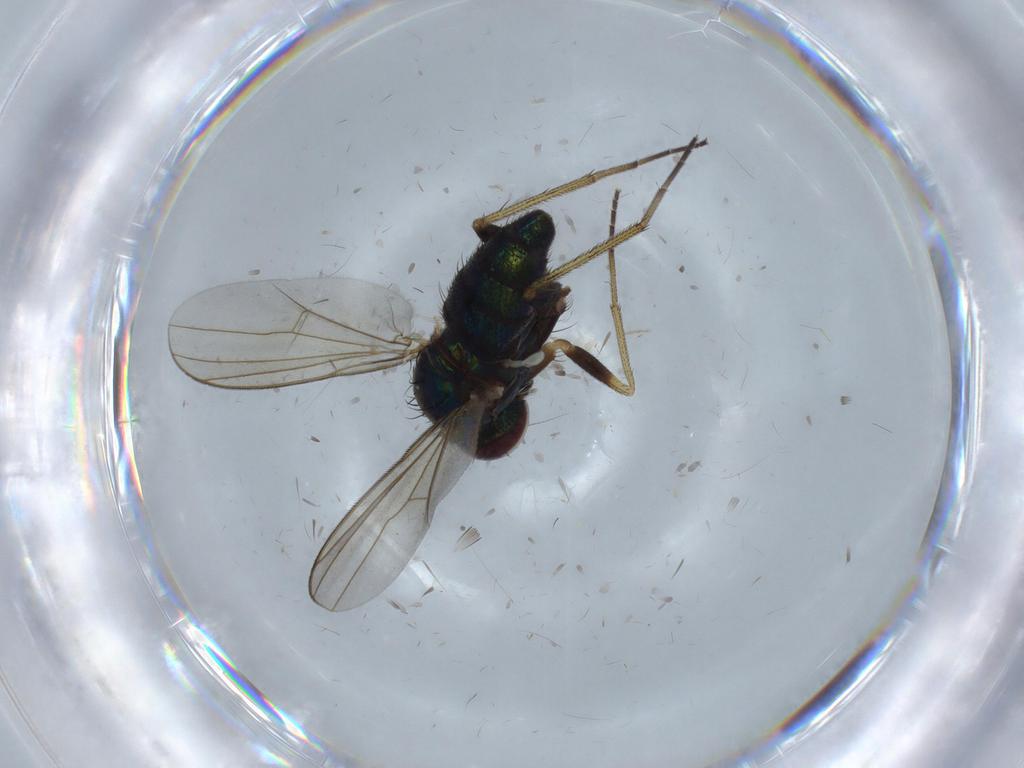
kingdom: Animalia
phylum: Arthropoda
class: Insecta
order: Diptera
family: Dolichopodidae
